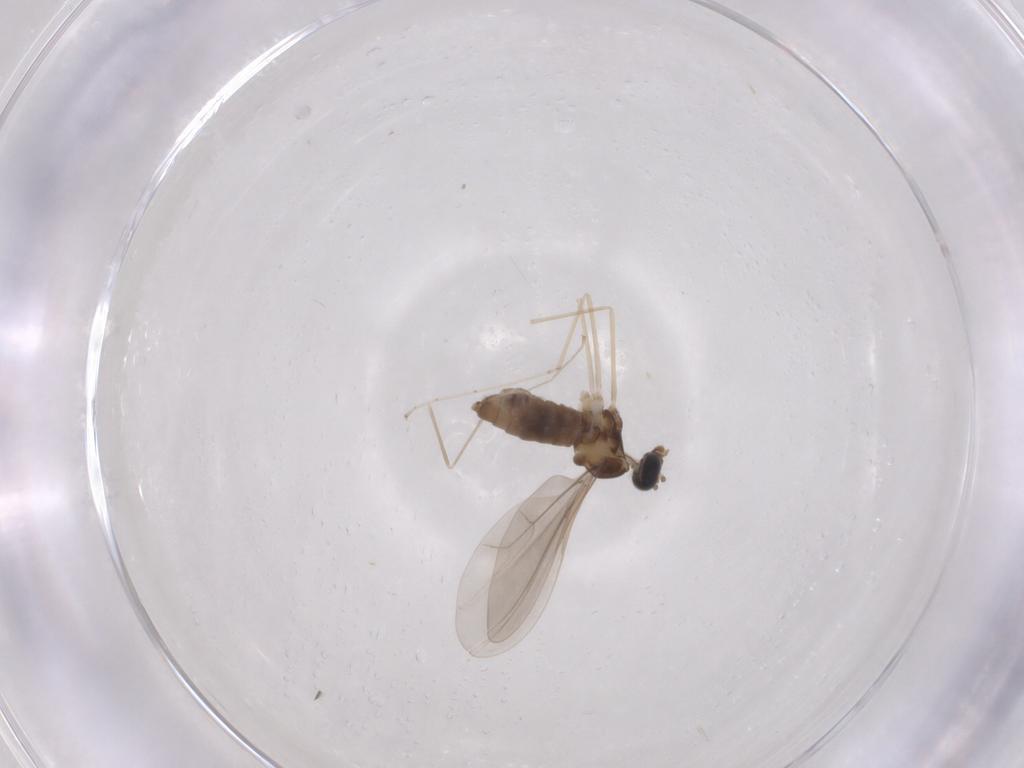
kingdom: Animalia
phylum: Arthropoda
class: Insecta
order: Diptera
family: Cecidomyiidae
